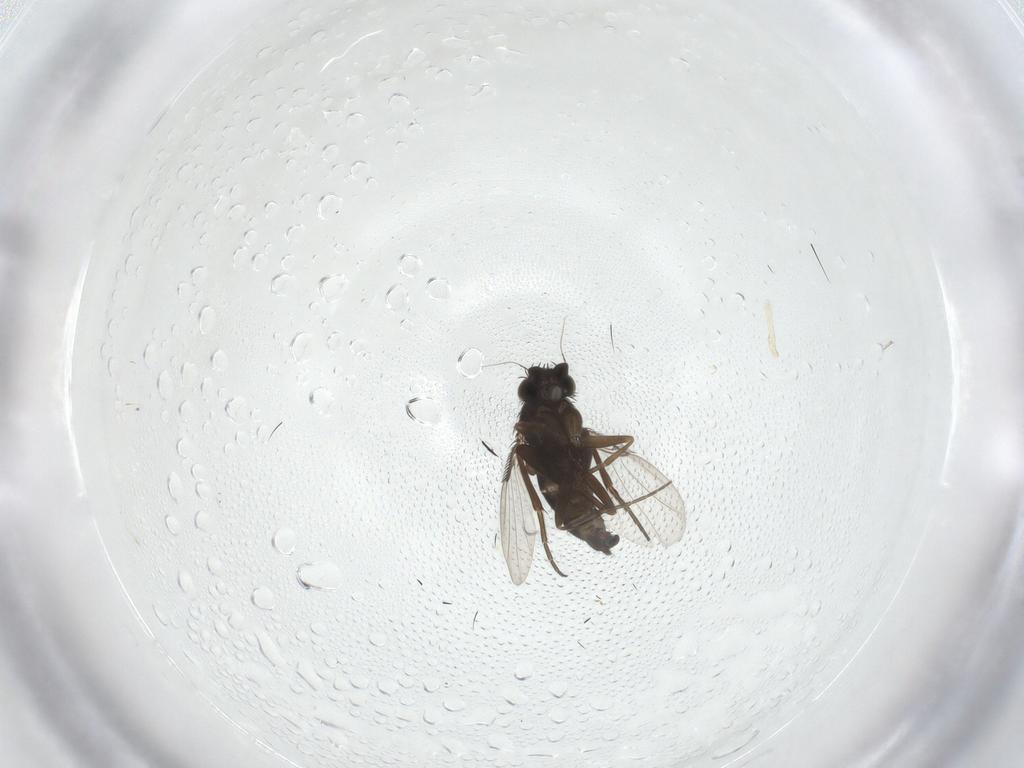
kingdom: Animalia
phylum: Arthropoda
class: Insecta
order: Diptera
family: Cecidomyiidae
